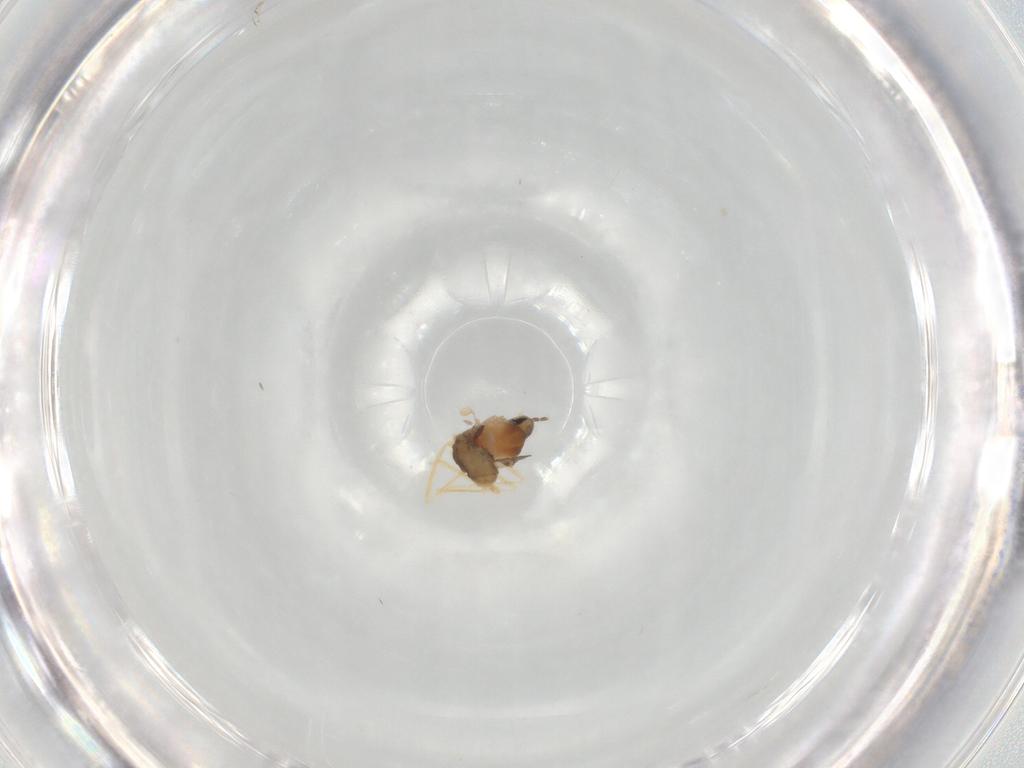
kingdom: Animalia
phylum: Arthropoda
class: Insecta
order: Diptera
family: Cecidomyiidae
